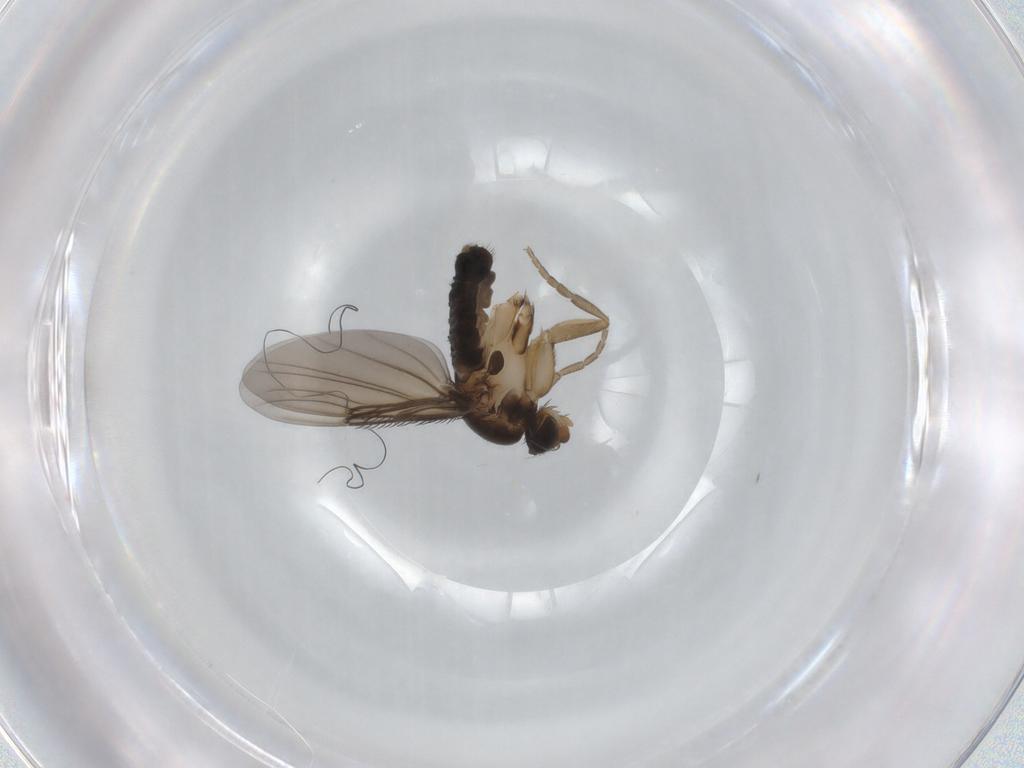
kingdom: Animalia
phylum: Arthropoda
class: Insecta
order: Diptera
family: Phoridae
